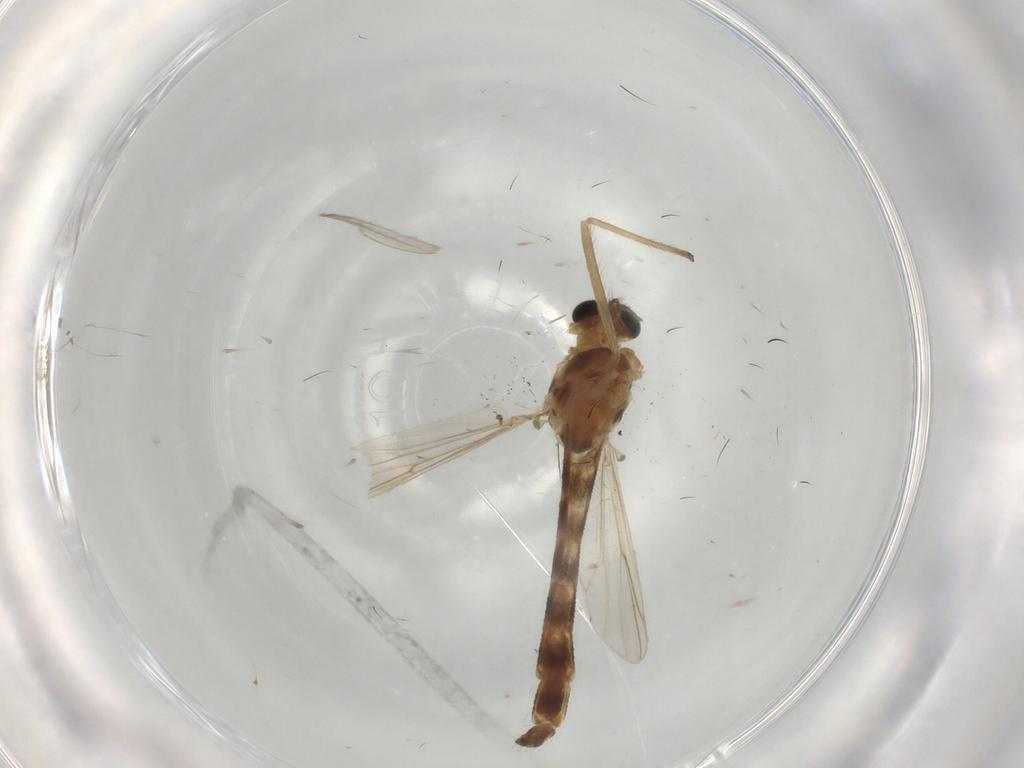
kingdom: Animalia
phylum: Arthropoda
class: Insecta
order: Diptera
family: Chironomidae
